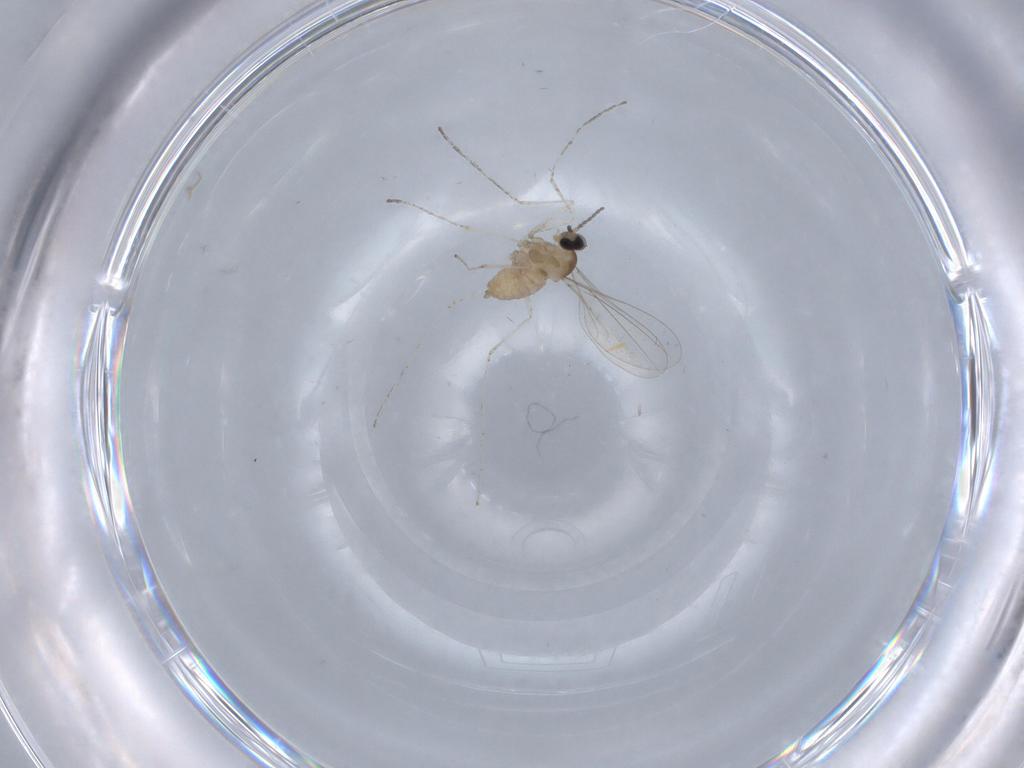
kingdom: Animalia
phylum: Arthropoda
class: Insecta
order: Diptera
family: Cecidomyiidae
